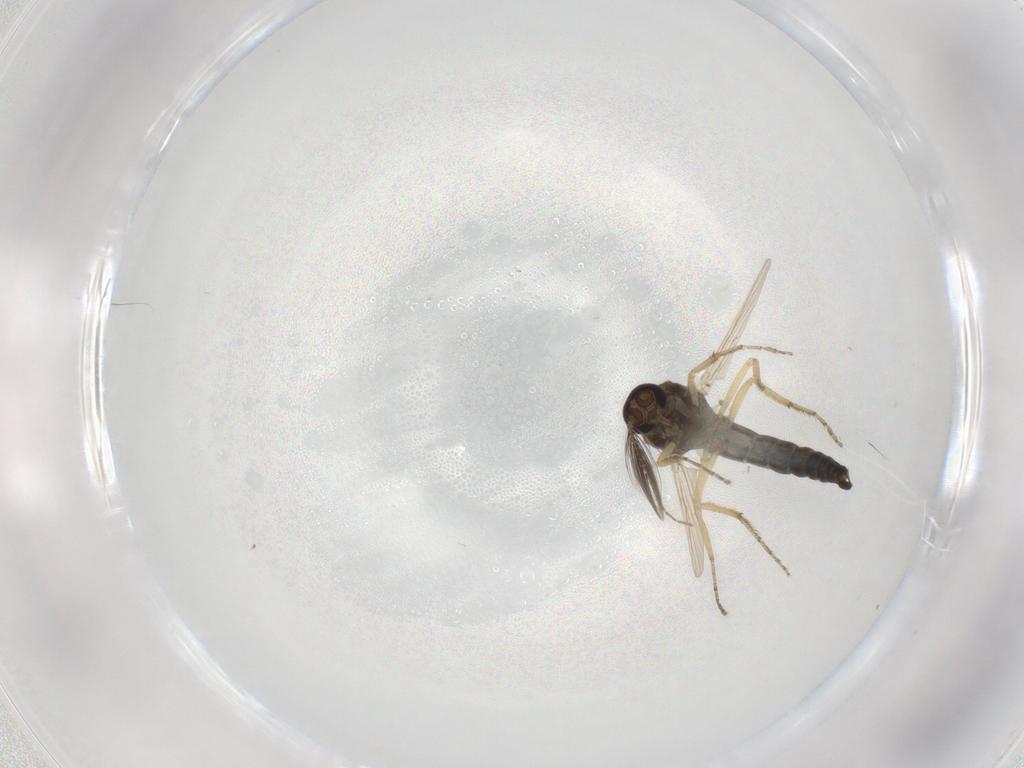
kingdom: Animalia
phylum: Arthropoda
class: Insecta
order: Diptera
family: Ceratopogonidae
